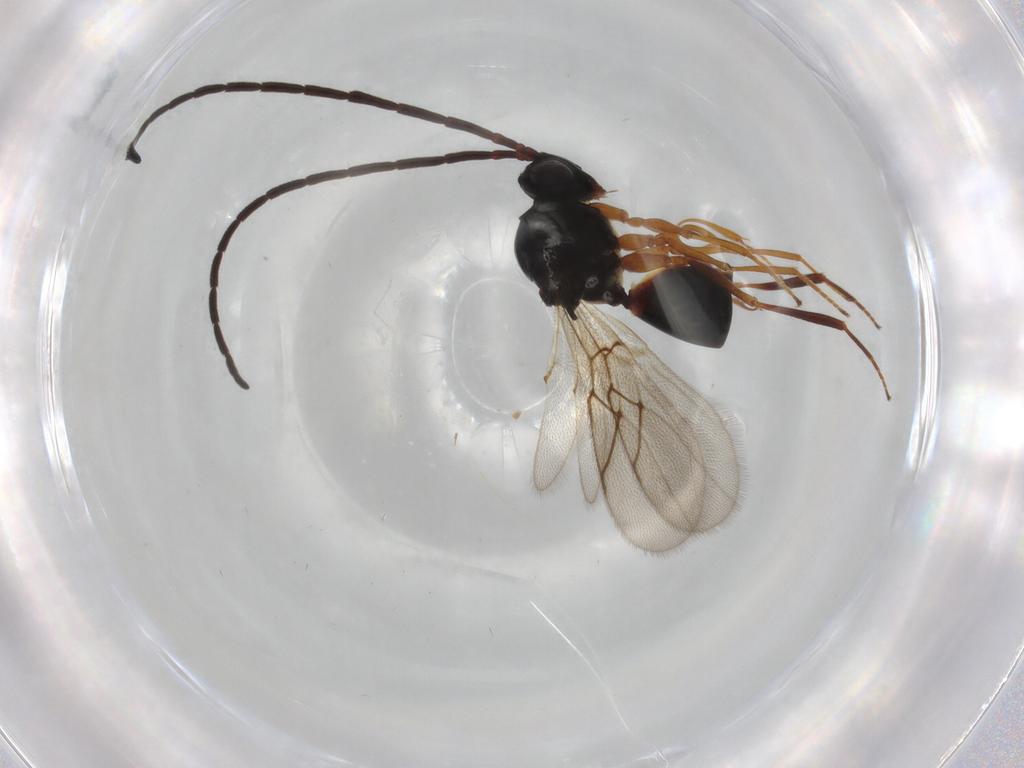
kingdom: Animalia
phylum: Arthropoda
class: Insecta
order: Hymenoptera
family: Figitidae
